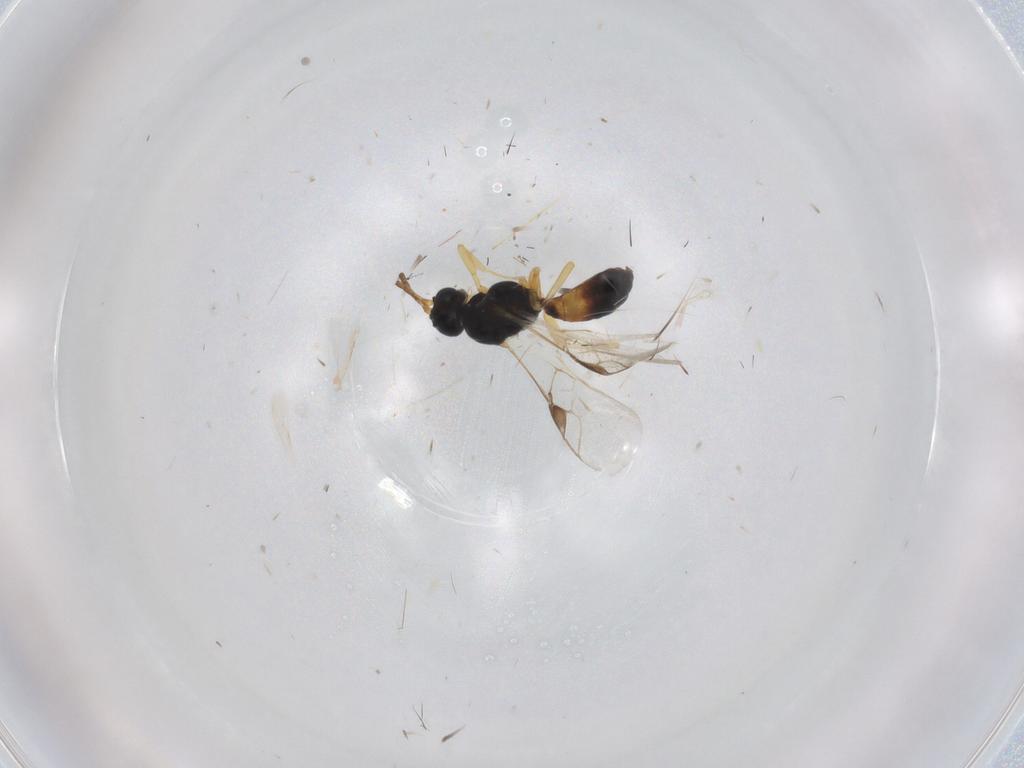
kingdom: Animalia
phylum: Arthropoda
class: Insecta
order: Hymenoptera
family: Braconidae
